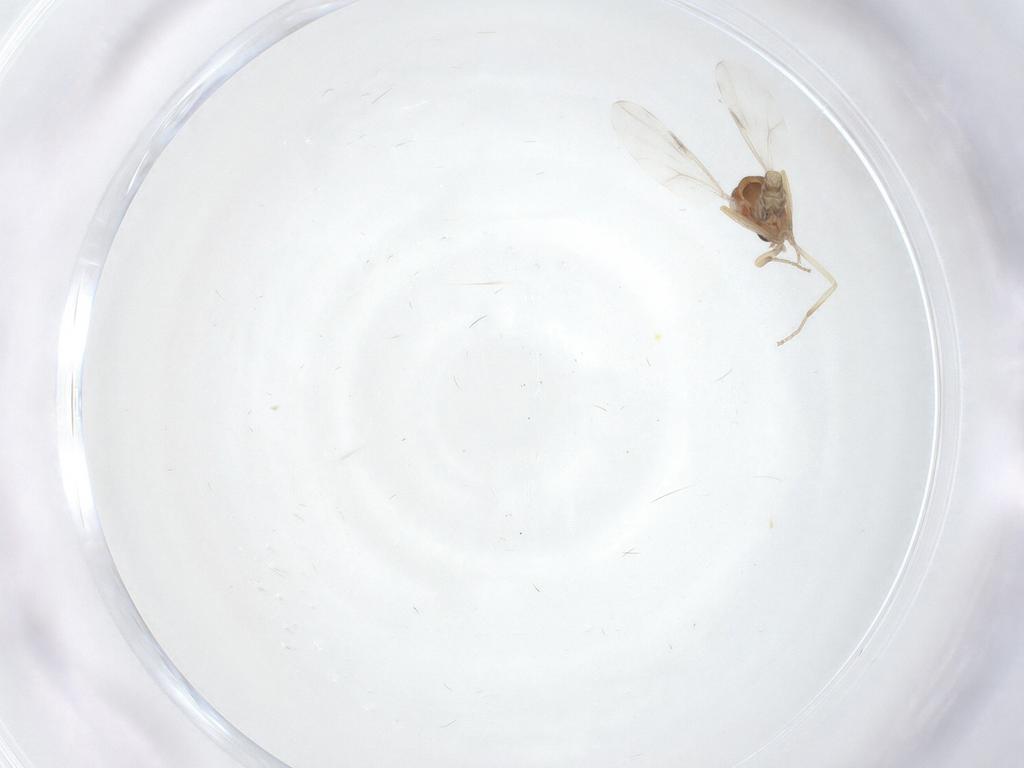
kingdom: Animalia
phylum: Arthropoda
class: Insecta
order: Diptera
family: Ceratopogonidae
